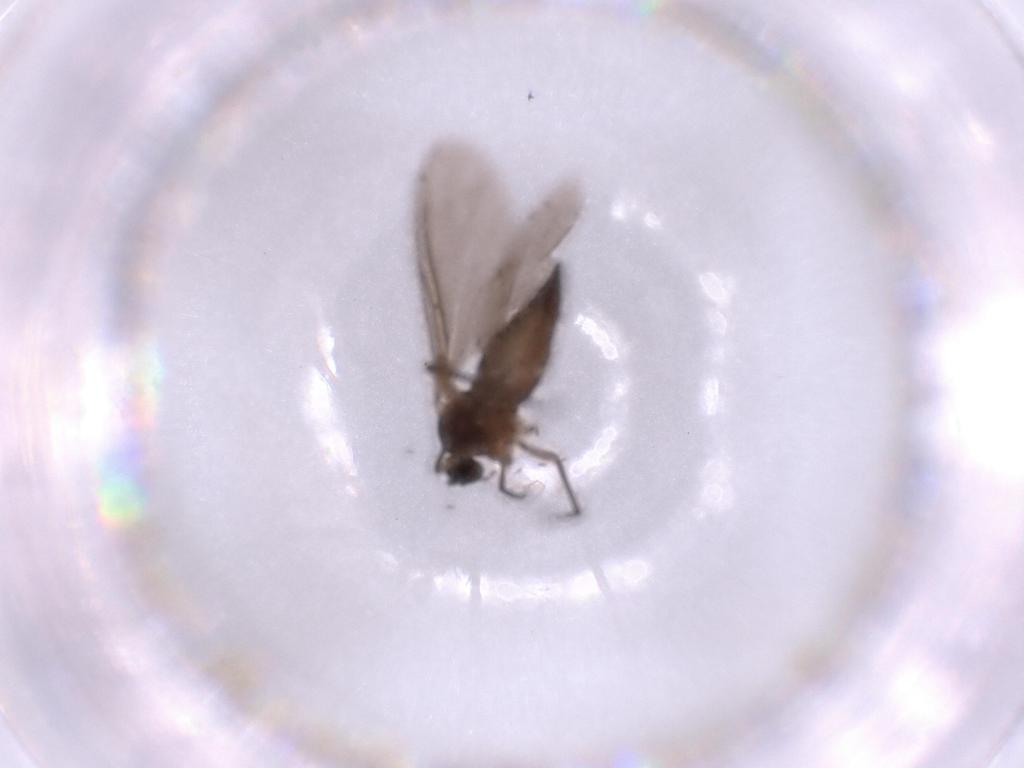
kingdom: Animalia
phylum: Arthropoda
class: Insecta
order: Diptera
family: Sciaridae
